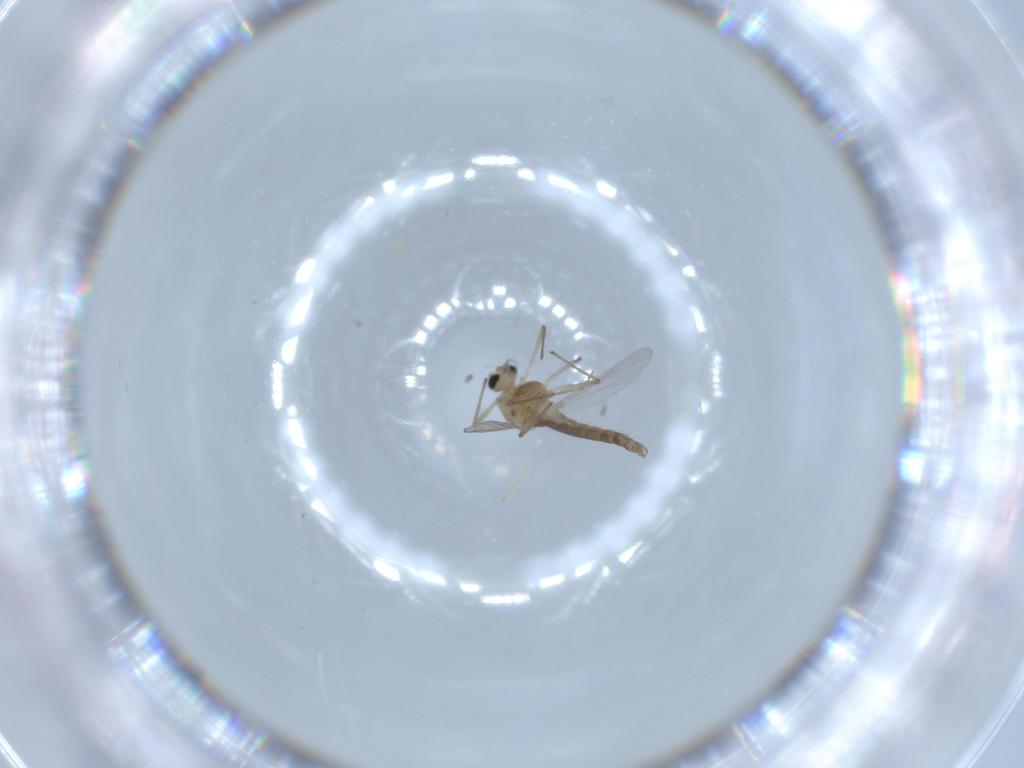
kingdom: Animalia
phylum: Arthropoda
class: Insecta
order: Diptera
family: Chironomidae
